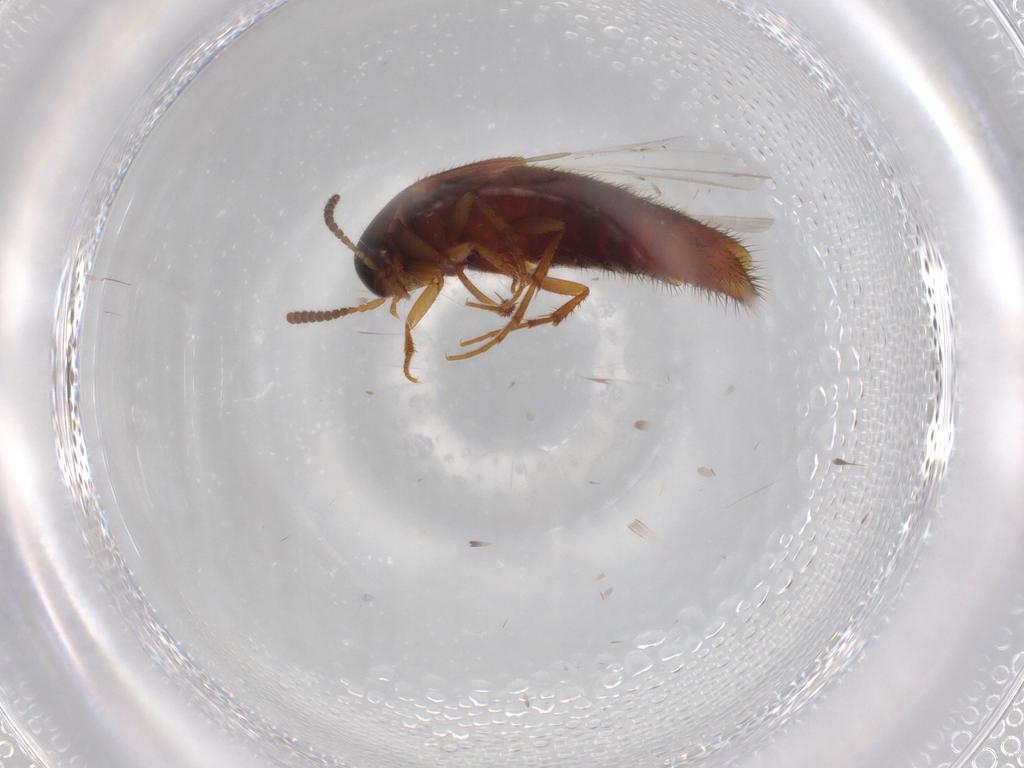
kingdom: Animalia
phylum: Arthropoda
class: Insecta
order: Coleoptera
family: Staphylinidae
